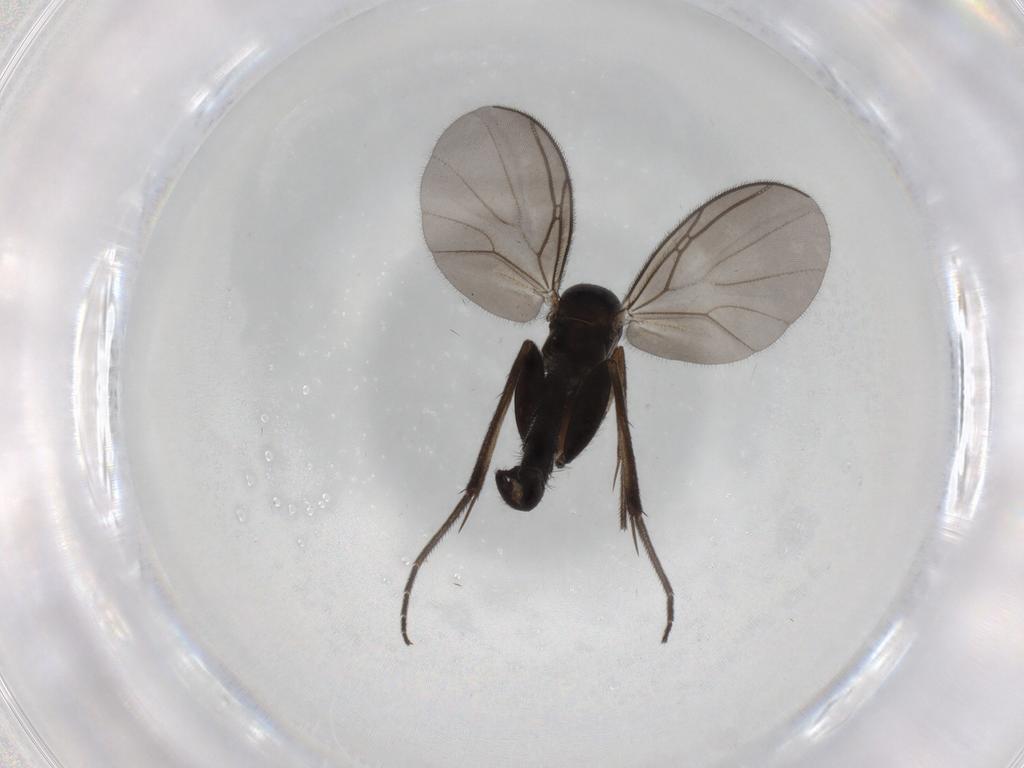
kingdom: Animalia
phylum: Arthropoda
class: Insecta
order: Diptera
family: Mycetophilidae
